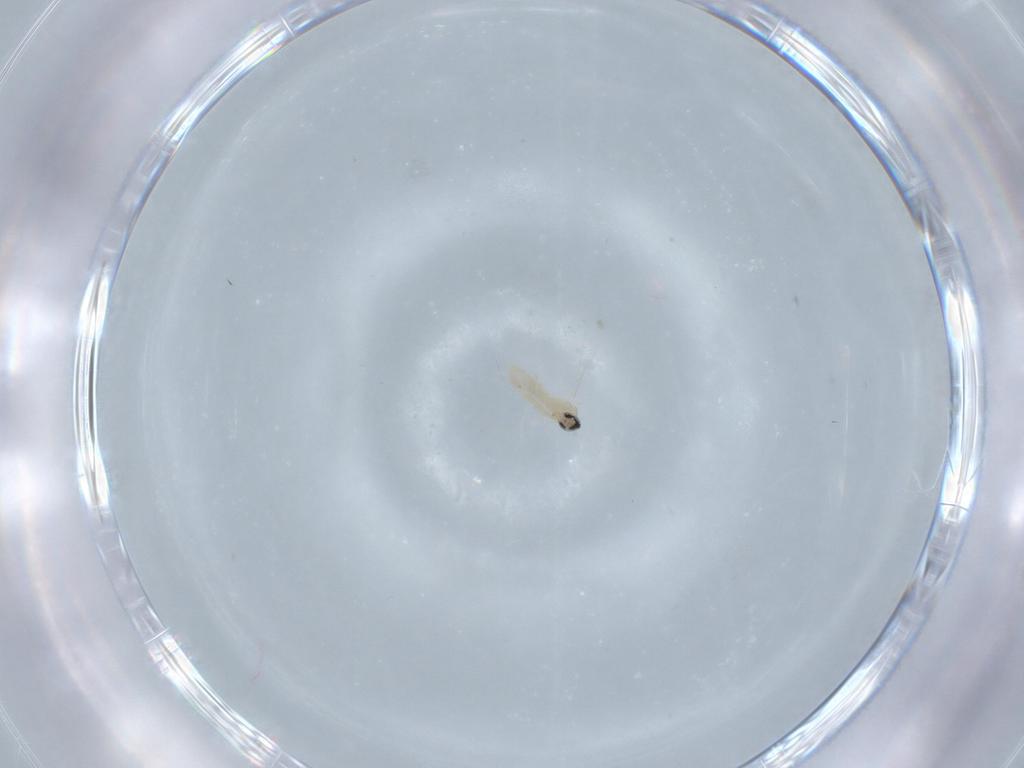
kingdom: Animalia
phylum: Arthropoda
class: Insecta
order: Diptera
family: Cecidomyiidae
